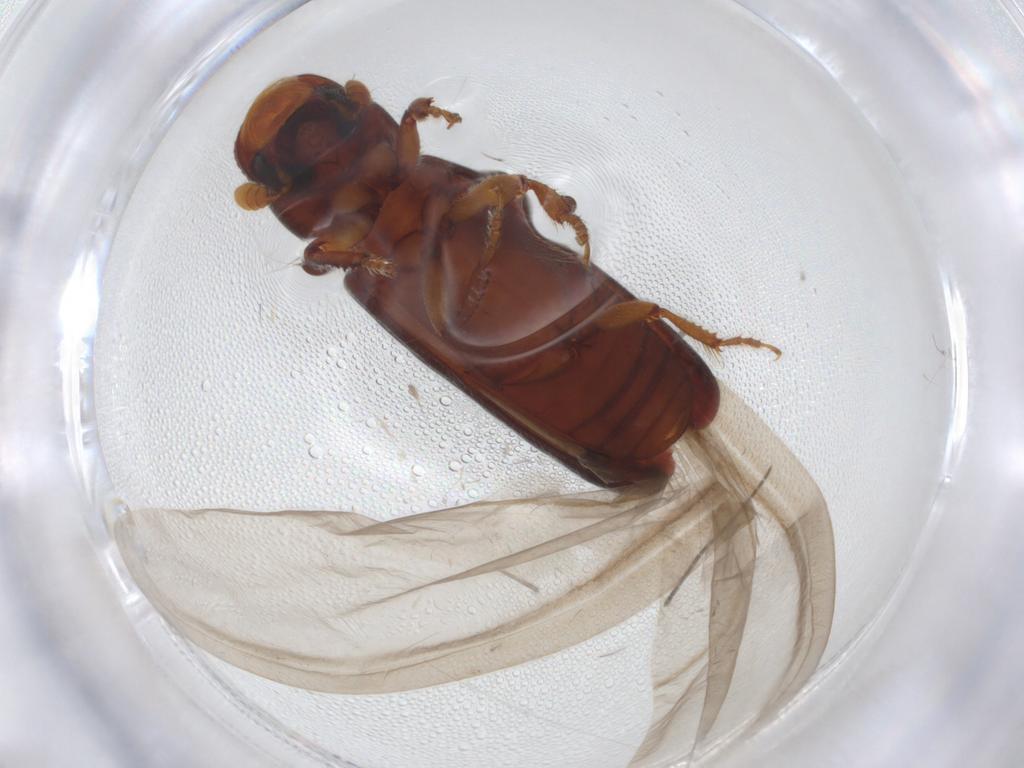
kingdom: Animalia
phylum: Arthropoda
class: Insecta
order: Coleoptera
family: Curculionidae
